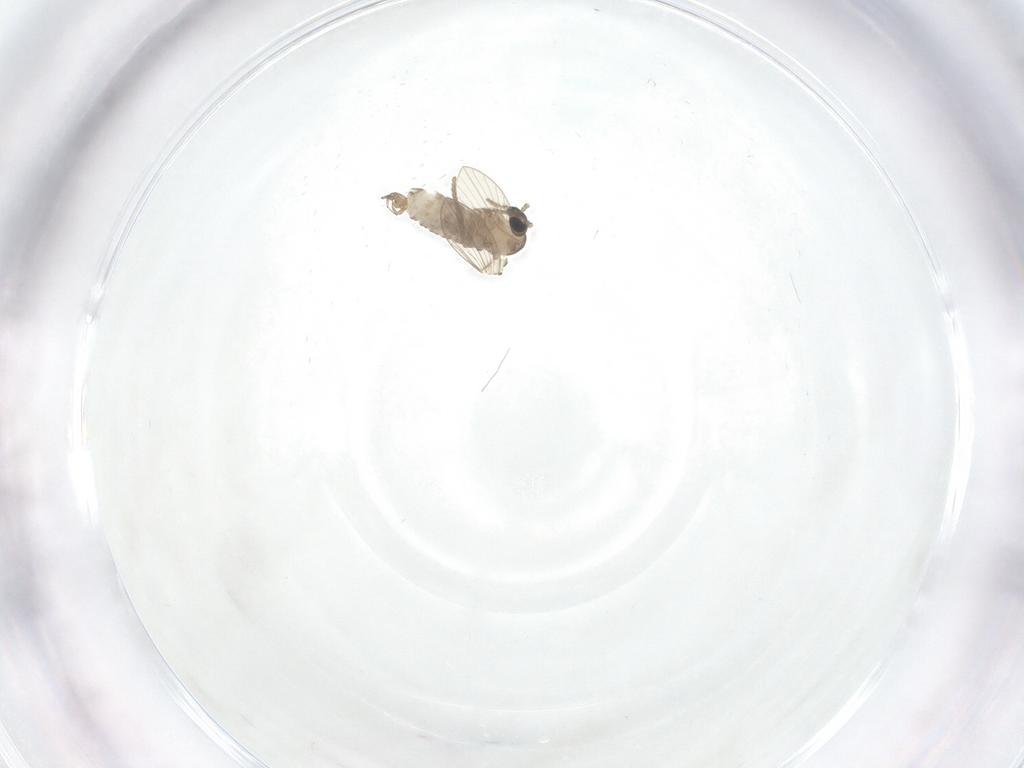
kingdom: Animalia
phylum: Arthropoda
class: Insecta
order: Diptera
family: Psychodidae
